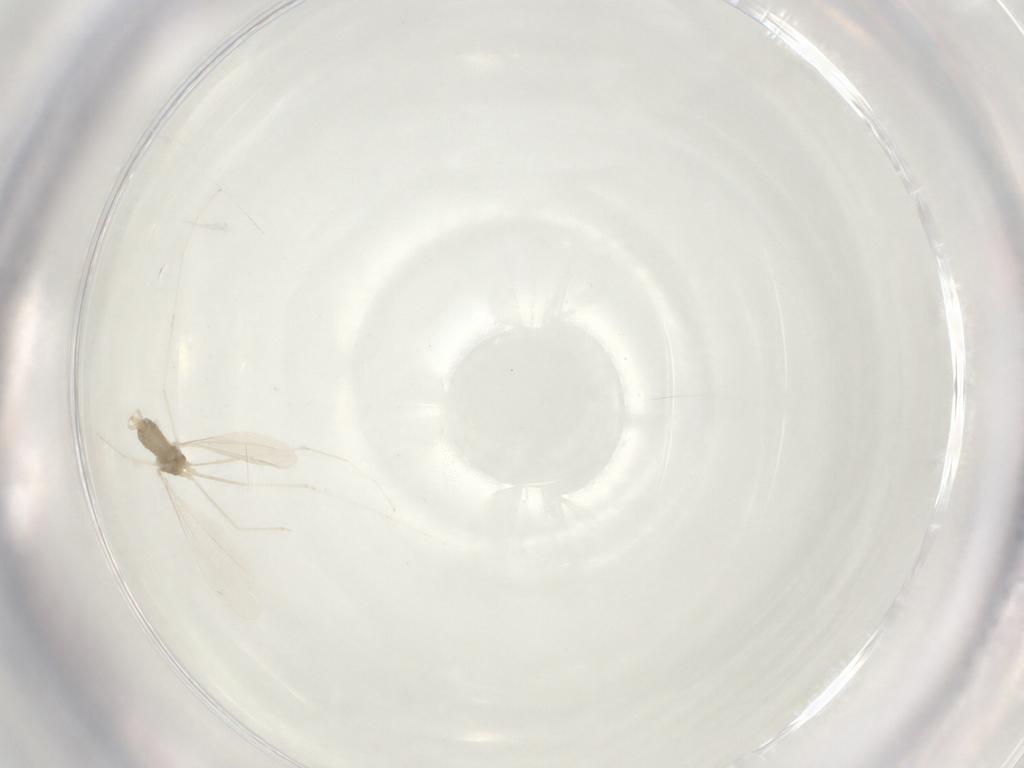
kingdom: Animalia
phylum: Arthropoda
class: Insecta
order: Diptera
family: Cecidomyiidae
